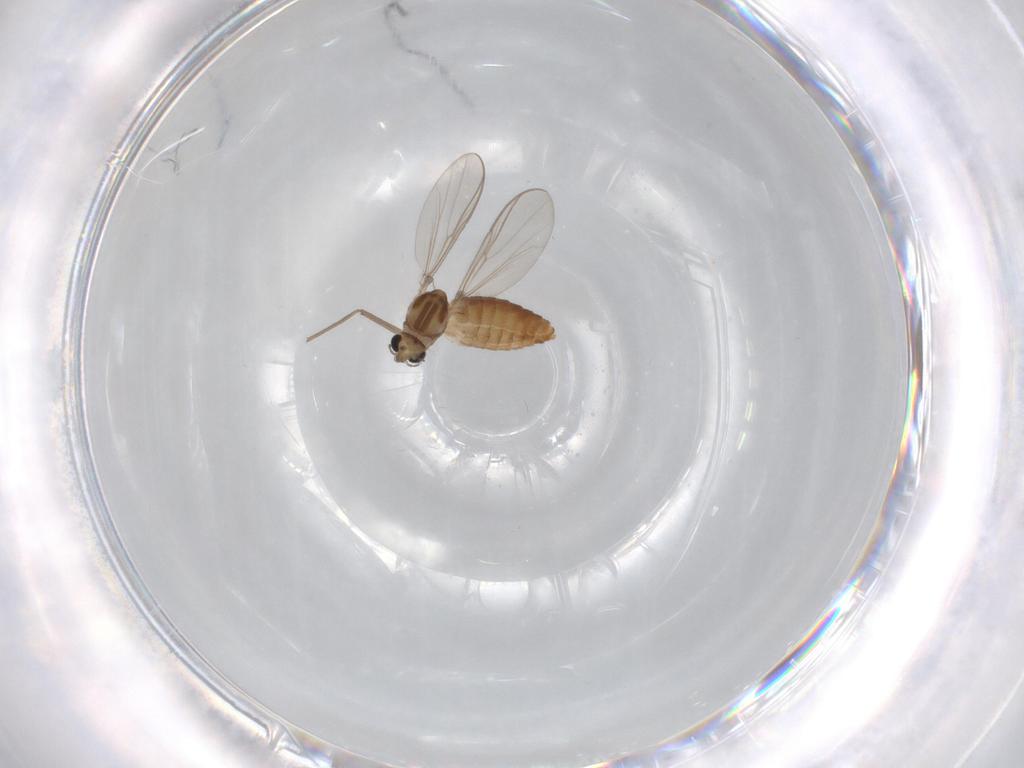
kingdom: Animalia
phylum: Arthropoda
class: Insecta
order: Diptera
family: Chironomidae
